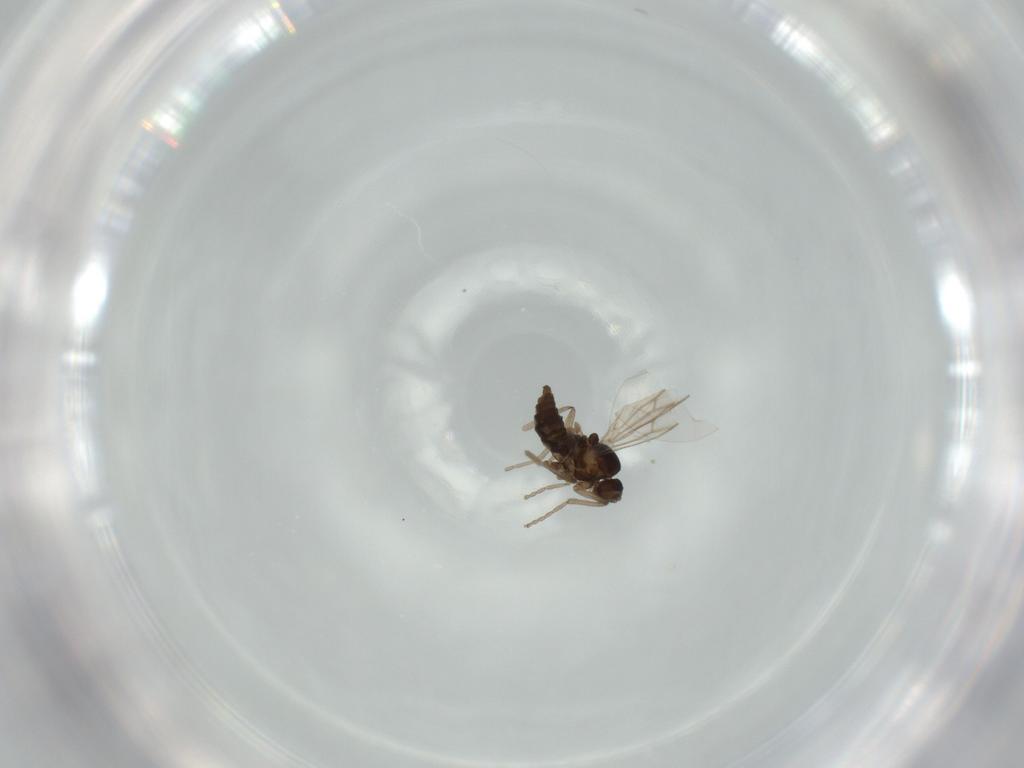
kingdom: Animalia
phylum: Arthropoda
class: Insecta
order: Diptera
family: Cecidomyiidae
